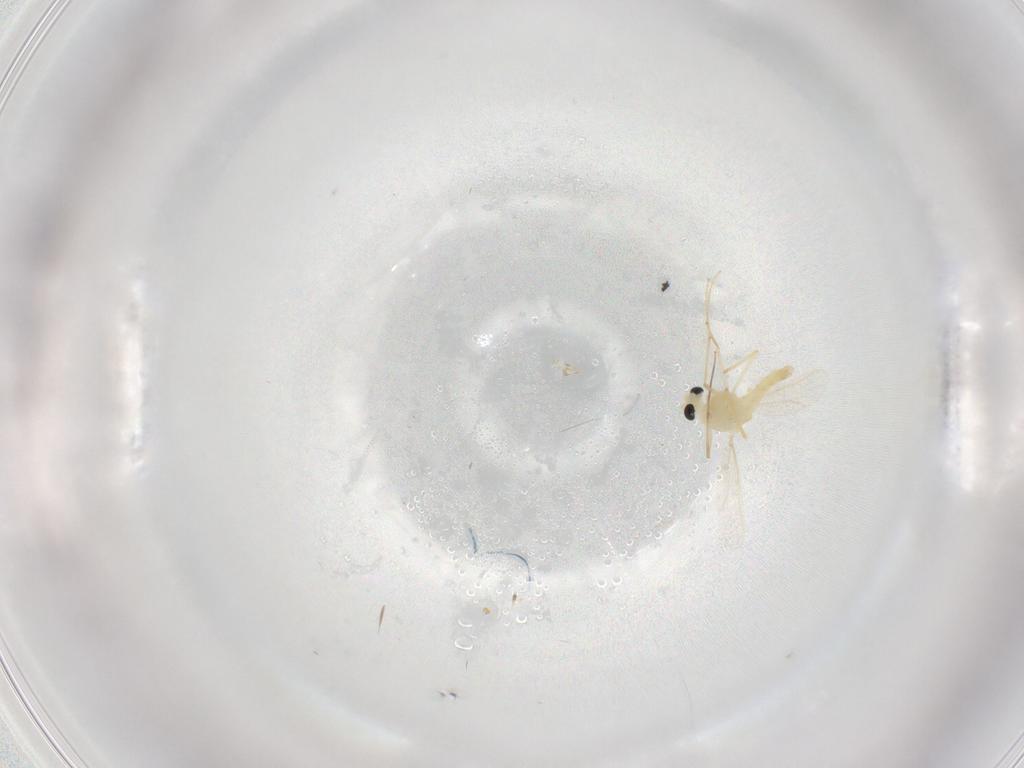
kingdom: Animalia
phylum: Arthropoda
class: Insecta
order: Diptera
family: Chironomidae
